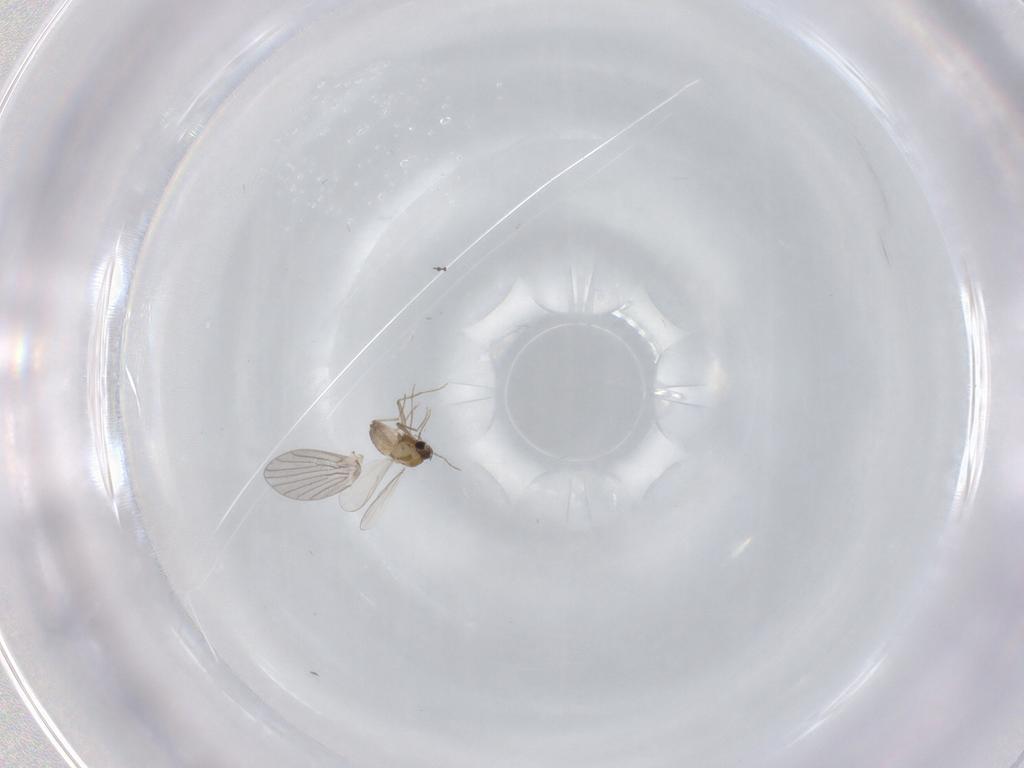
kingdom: Animalia
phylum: Arthropoda
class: Insecta
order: Diptera
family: Chironomidae
